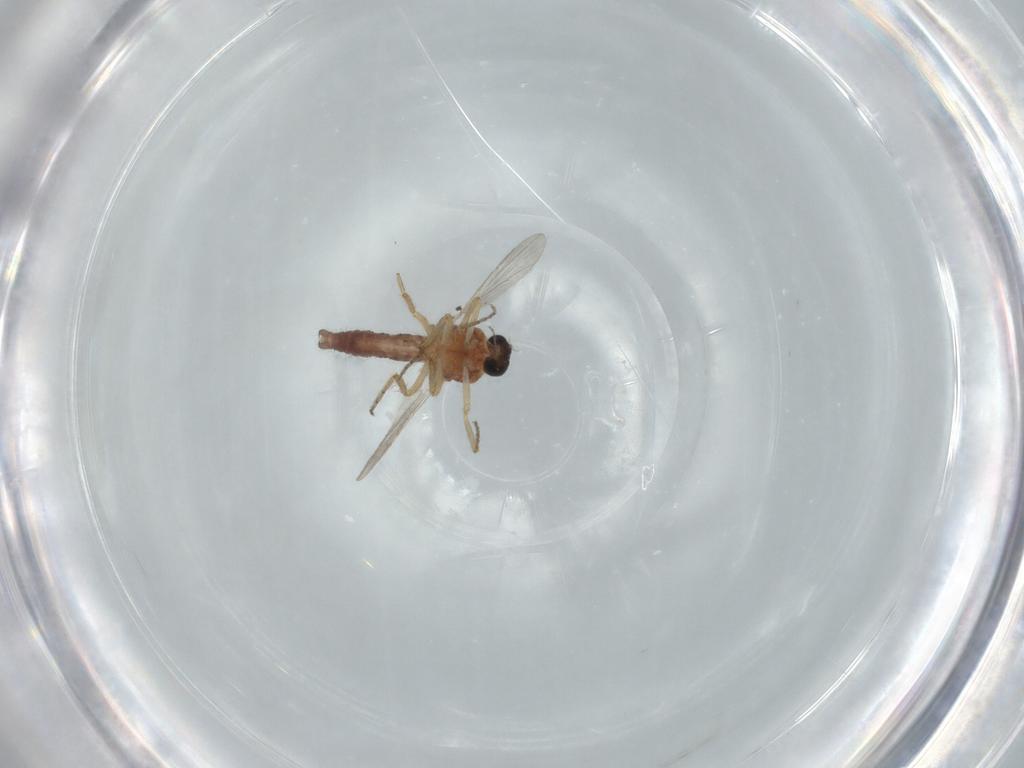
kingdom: Animalia
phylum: Arthropoda
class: Insecta
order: Diptera
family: Ceratopogonidae
